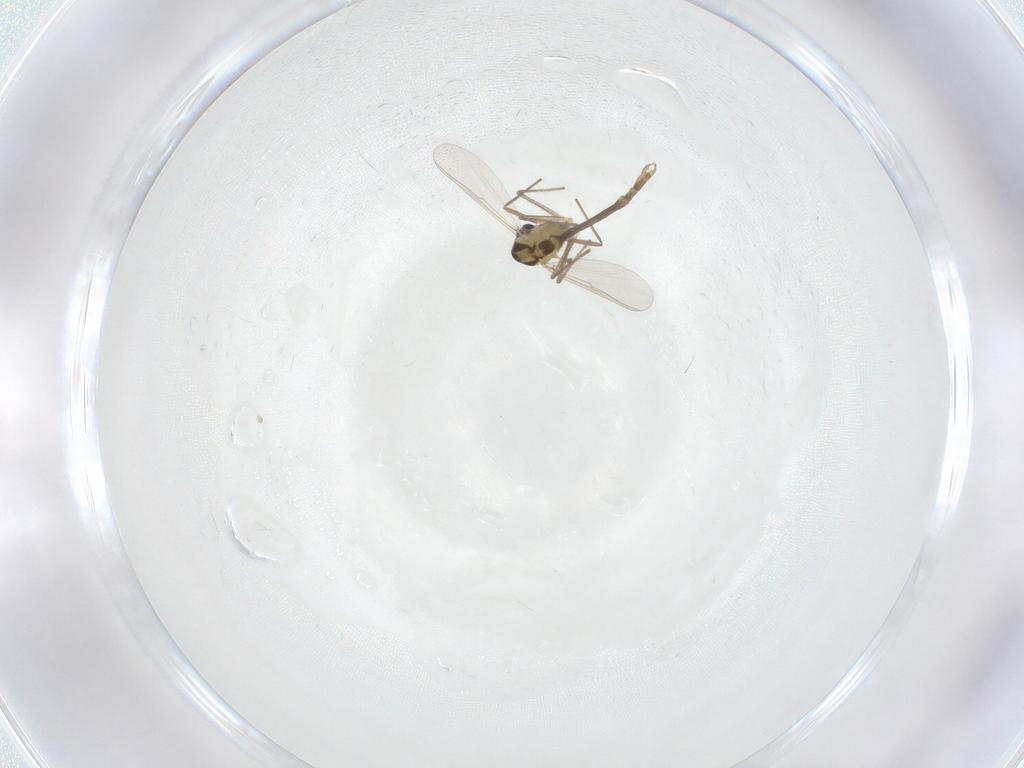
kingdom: Animalia
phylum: Arthropoda
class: Insecta
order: Diptera
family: Chironomidae
